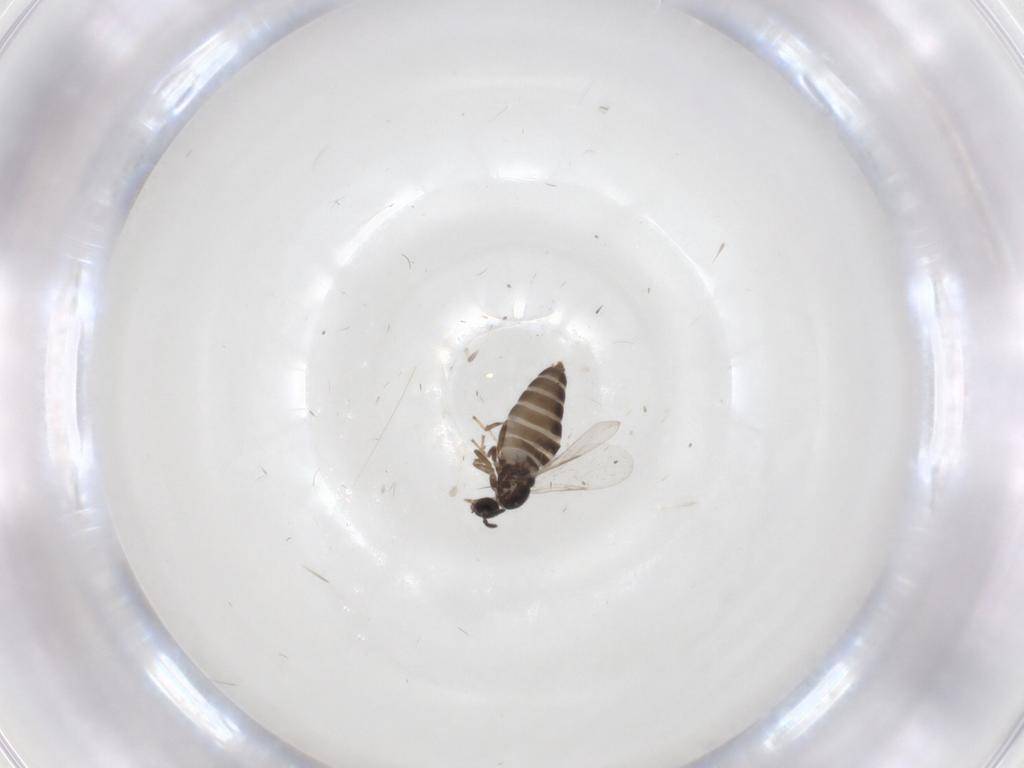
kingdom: Animalia
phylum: Arthropoda
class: Insecta
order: Diptera
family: Scatopsidae
